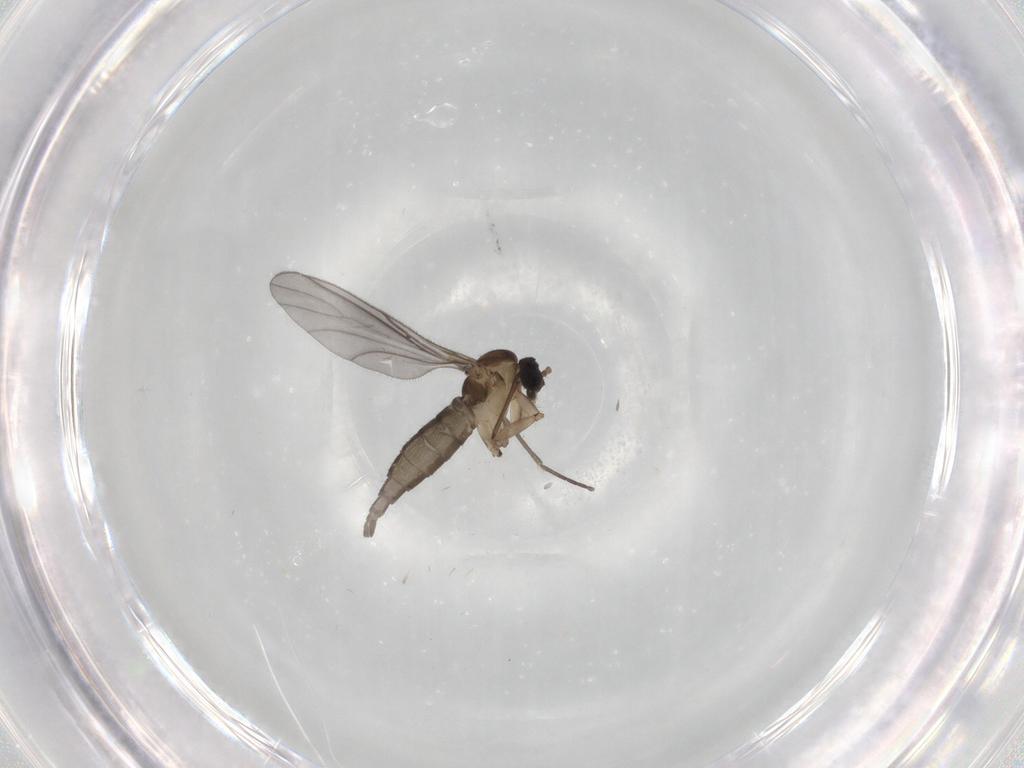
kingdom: Animalia
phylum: Arthropoda
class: Insecta
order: Diptera
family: Sciaridae
